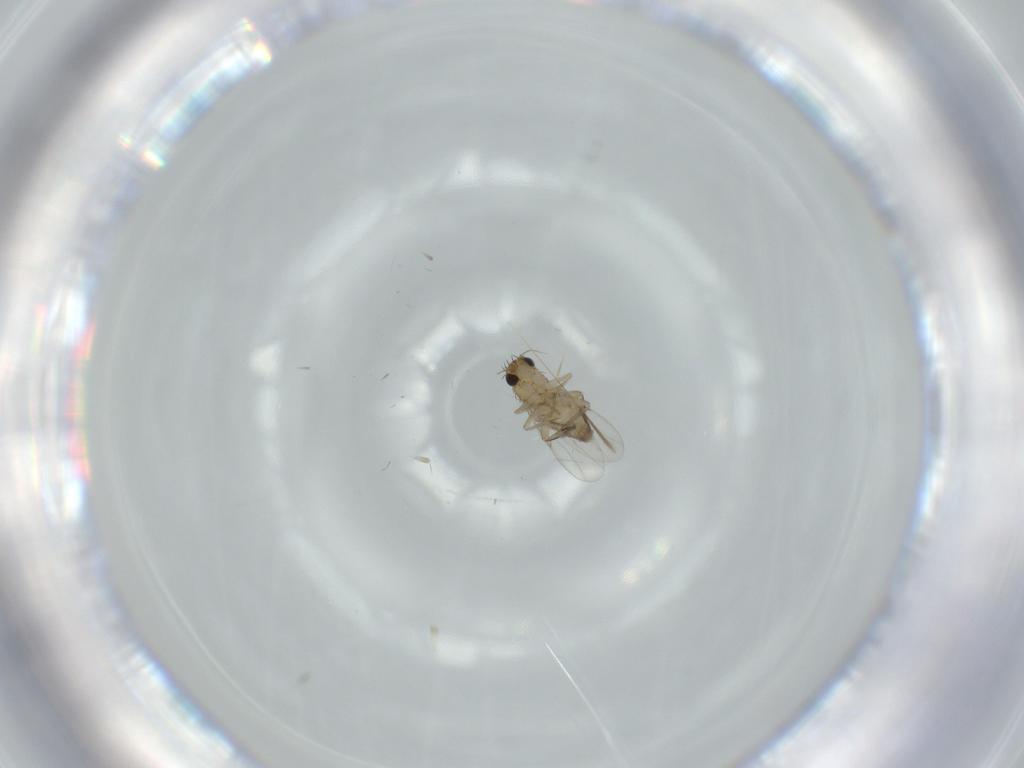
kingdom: Animalia
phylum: Arthropoda
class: Insecta
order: Diptera
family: Phoridae
